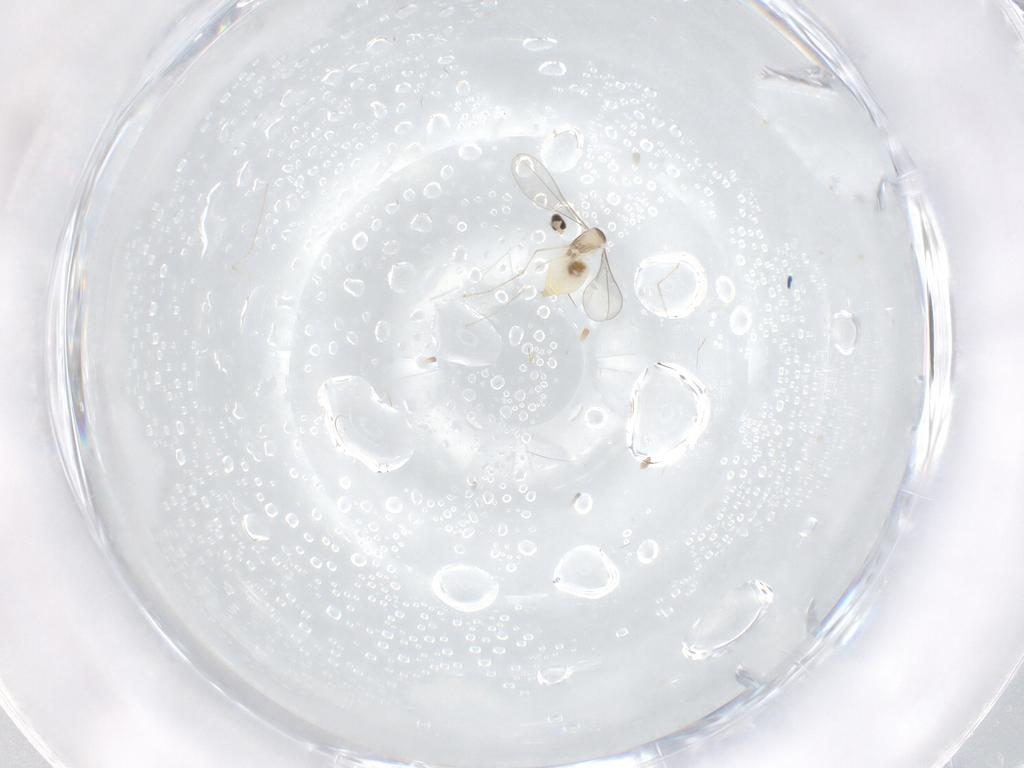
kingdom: Animalia
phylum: Arthropoda
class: Insecta
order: Diptera
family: Cecidomyiidae
